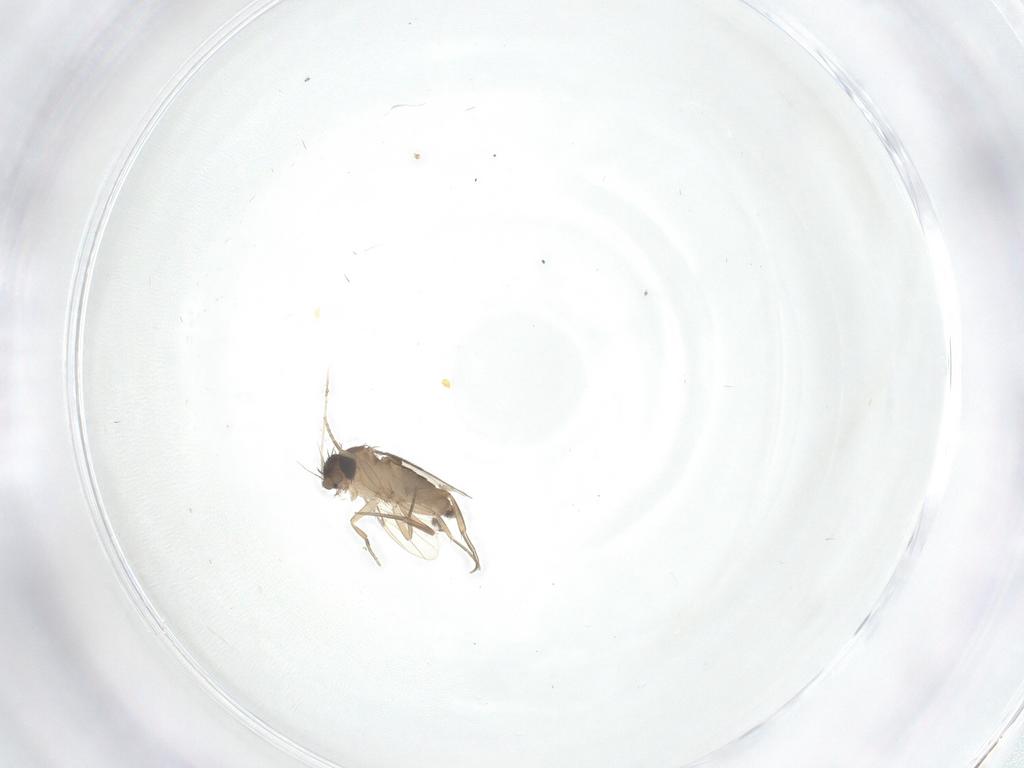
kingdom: Animalia
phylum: Arthropoda
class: Insecta
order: Diptera
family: Phoridae
